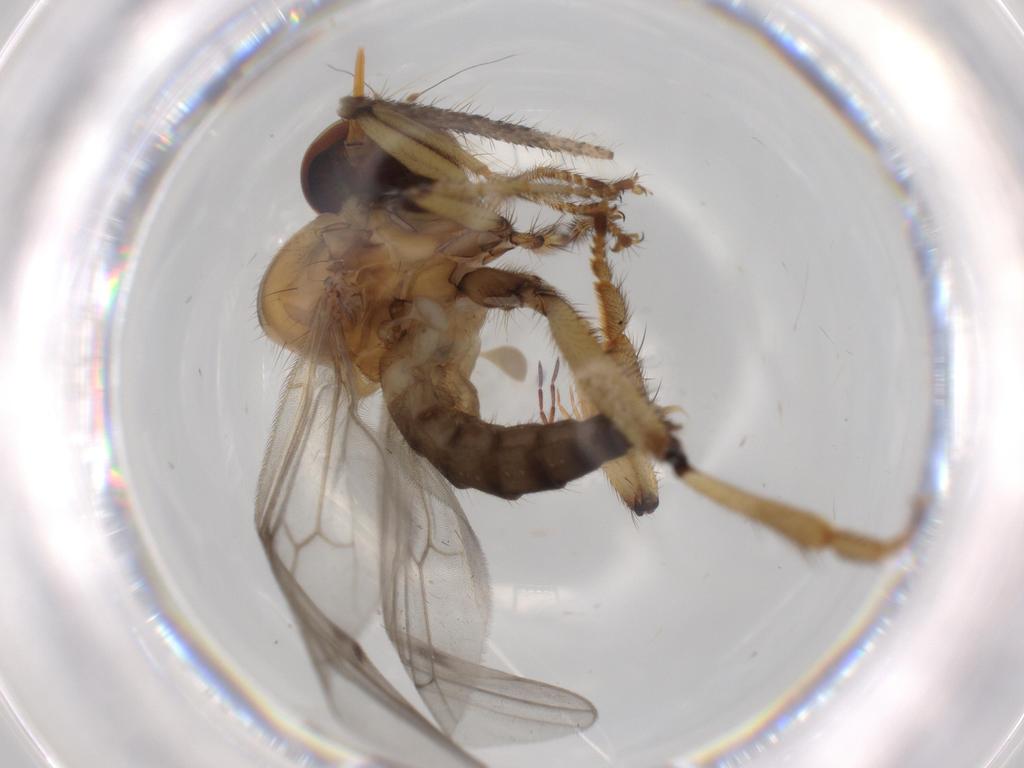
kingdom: Animalia
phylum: Arthropoda
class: Insecta
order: Diptera
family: Hybotidae
